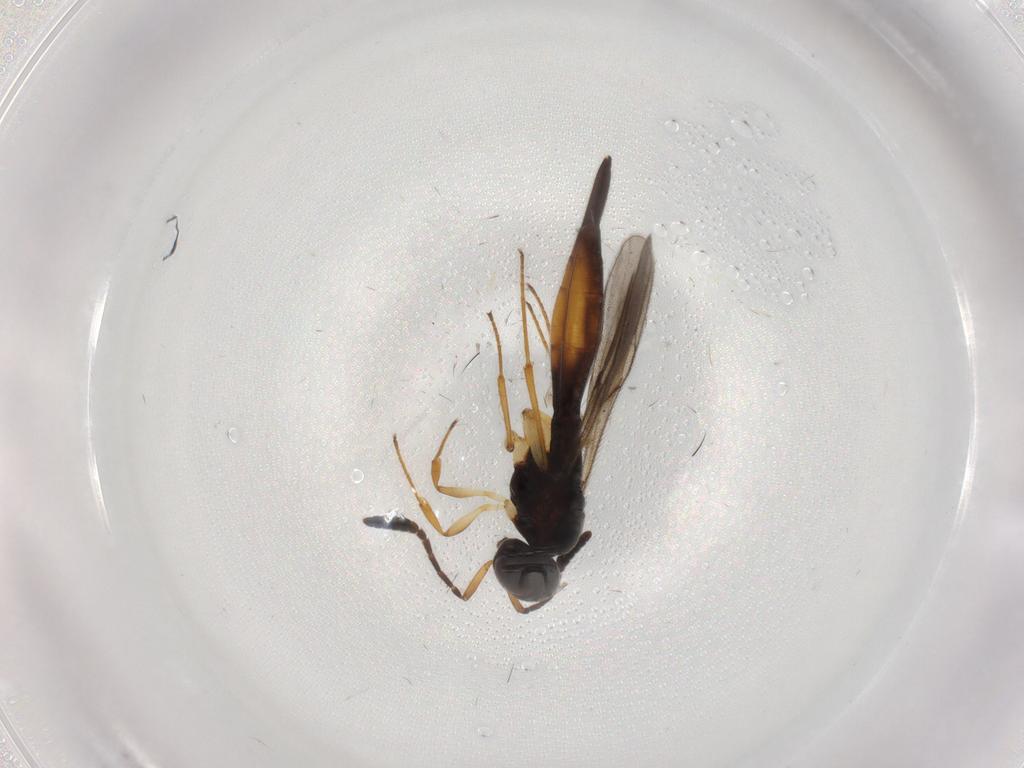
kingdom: Animalia
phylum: Arthropoda
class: Insecta
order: Hymenoptera
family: Scelionidae
